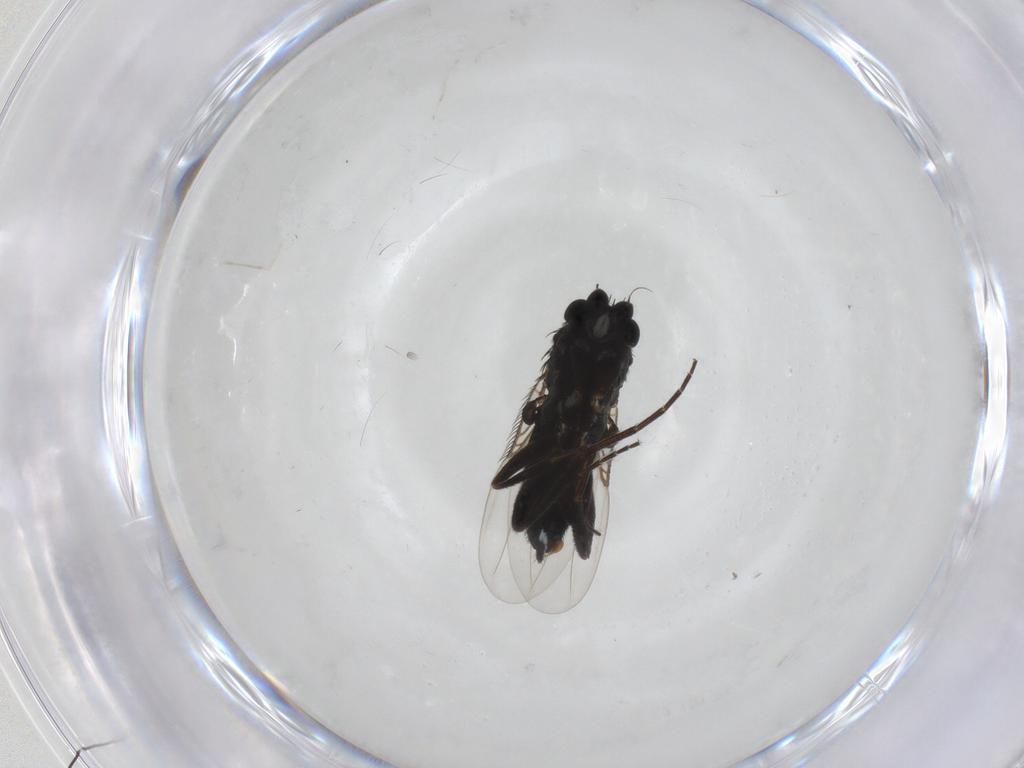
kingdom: Animalia
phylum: Arthropoda
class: Insecta
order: Diptera
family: Phoridae
